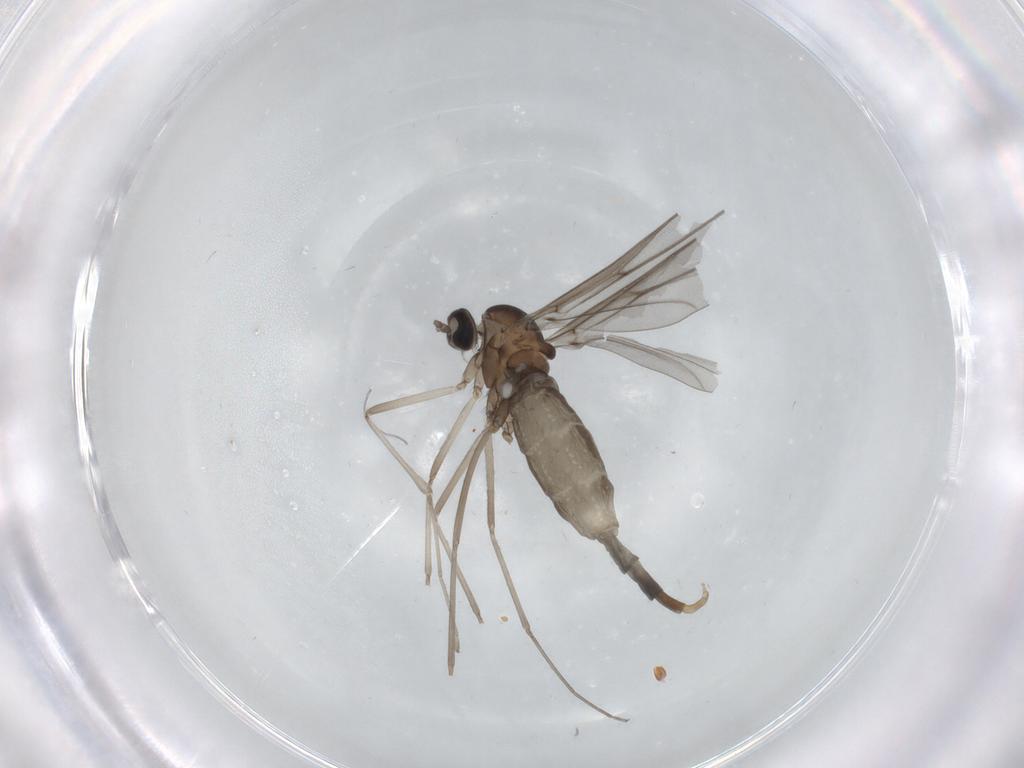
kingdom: Animalia
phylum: Arthropoda
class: Insecta
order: Diptera
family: Cecidomyiidae
